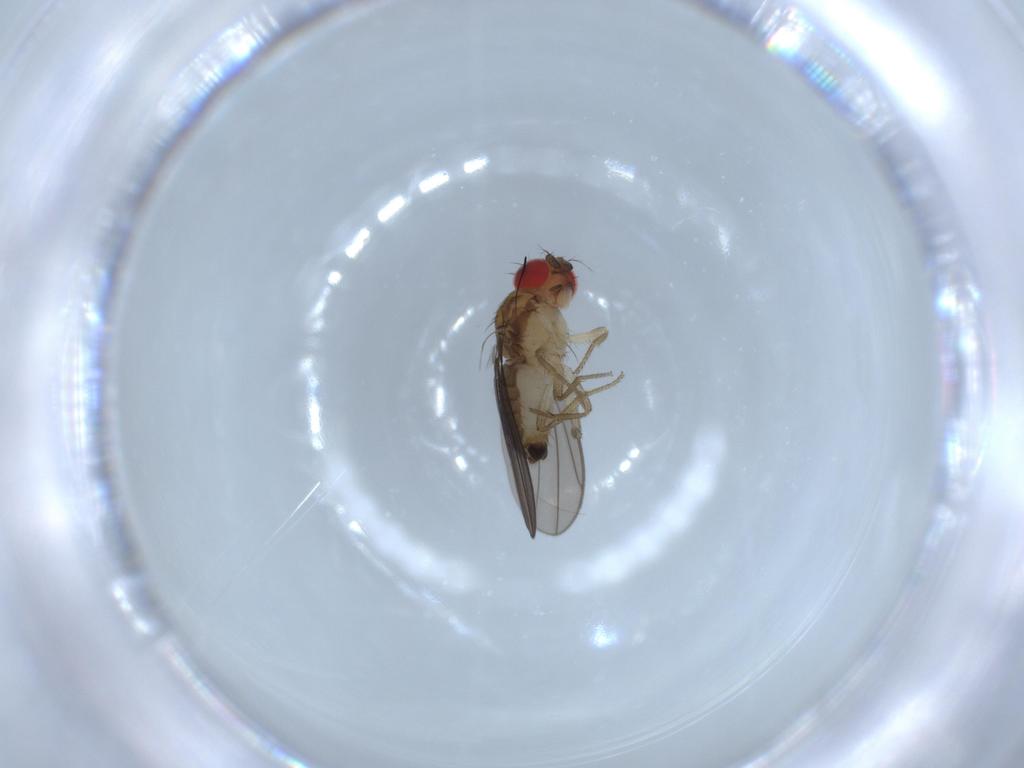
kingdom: Animalia
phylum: Arthropoda
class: Insecta
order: Diptera
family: Drosophilidae
